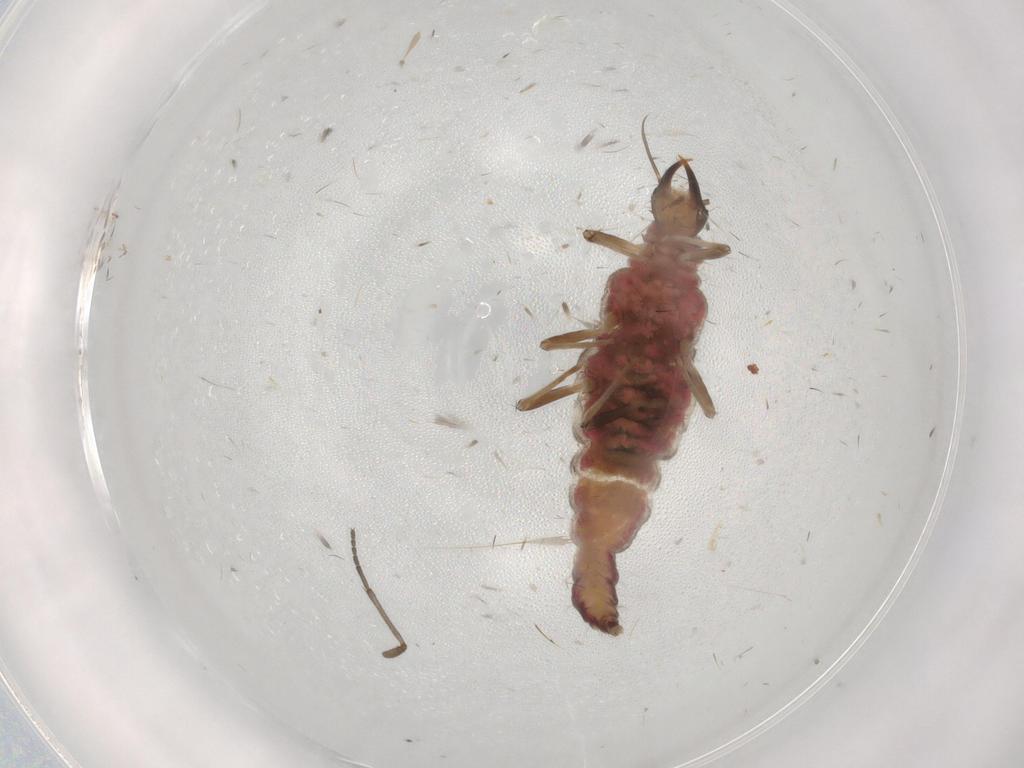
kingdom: Animalia
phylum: Arthropoda
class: Insecta
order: Neuroptera
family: Hemerobiidae
